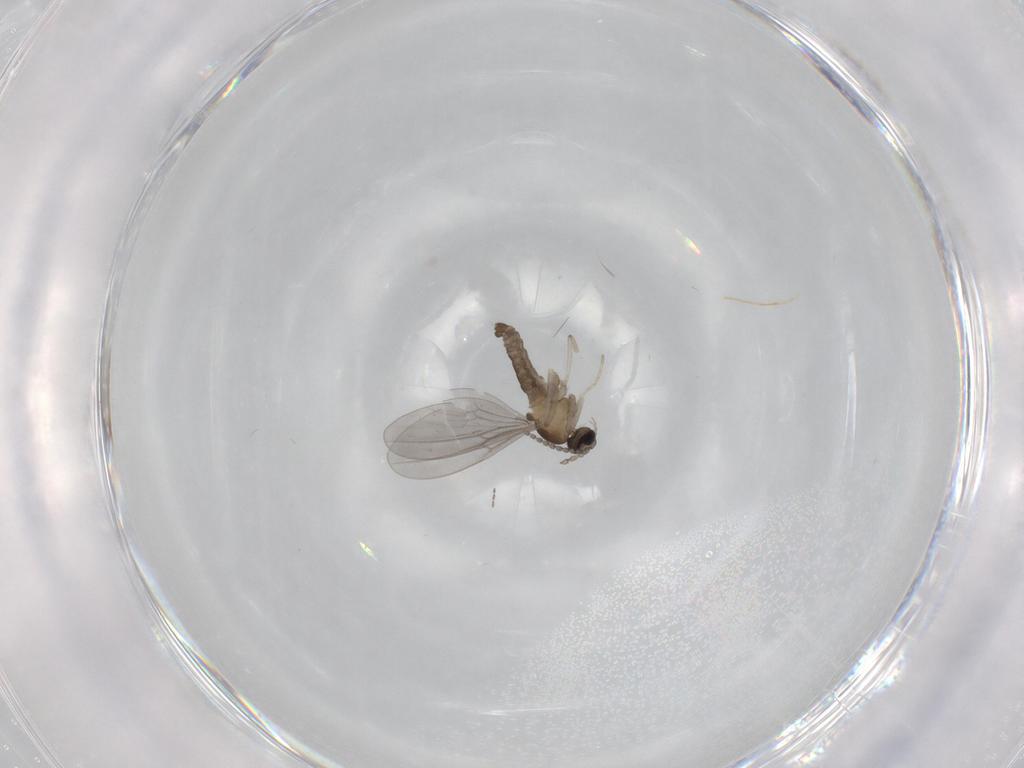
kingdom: Animalia
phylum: Arthropoda
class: Insecta
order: Diptera
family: Cecidomyiidae
